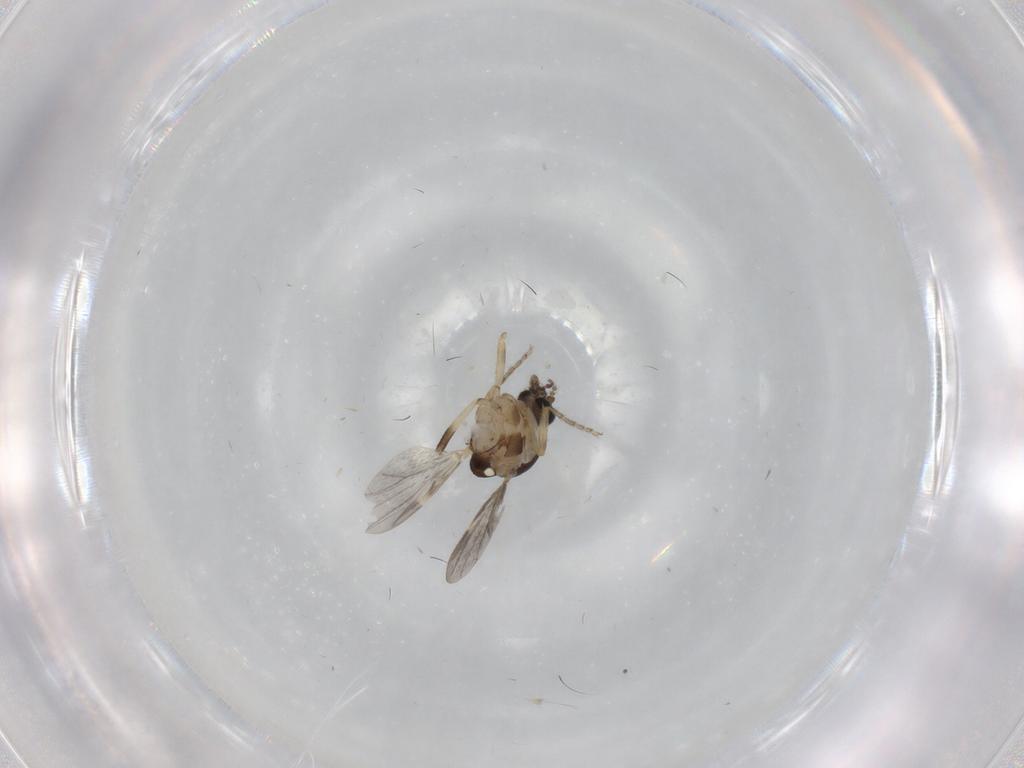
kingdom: Animalia
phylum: Arthropoda
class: Insecta
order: Diptera
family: Ceratopogonidae
